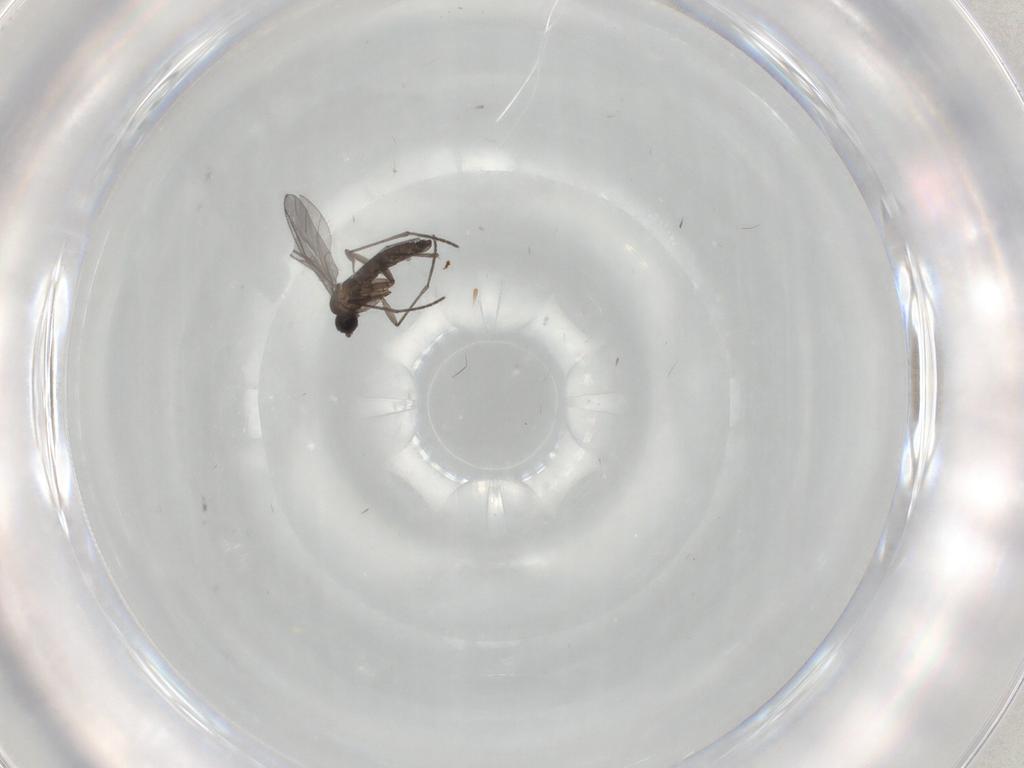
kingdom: Animalia
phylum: Arthropoda
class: Insecta
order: Diptera
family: Milichiidae
